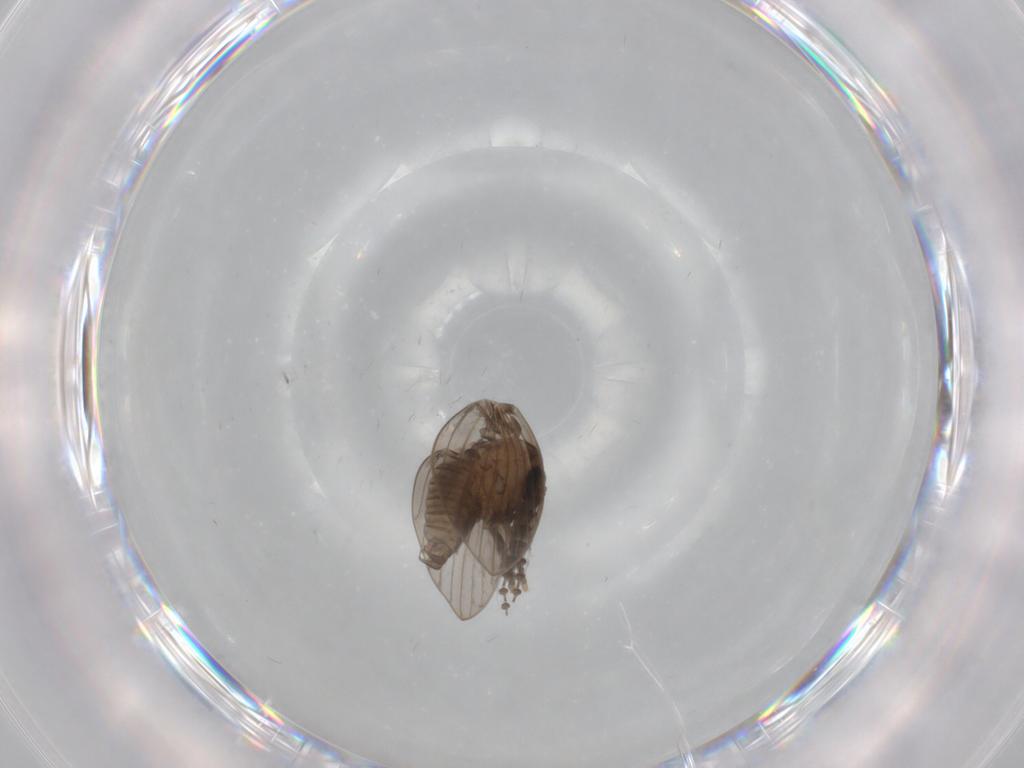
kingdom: Animalia
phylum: Arthropoda
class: Insecta
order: Diptera
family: Psychodidae
